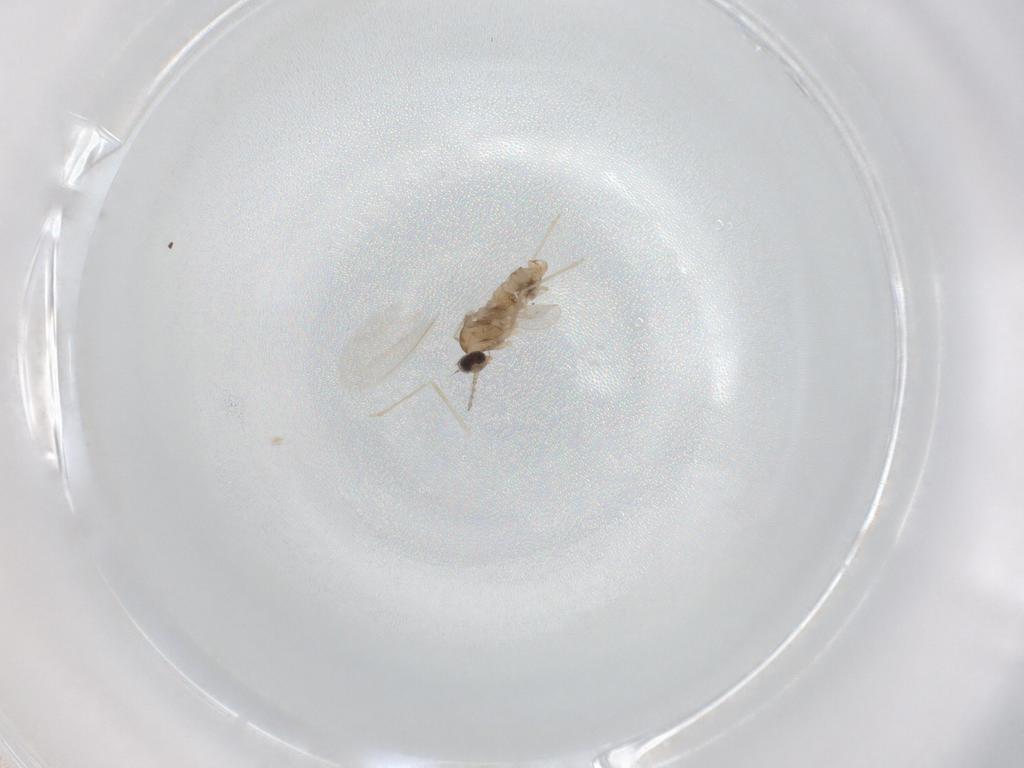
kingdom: Animalia
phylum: Arthropoda
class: Insecta
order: Diptera
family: Cecidomyiidae
